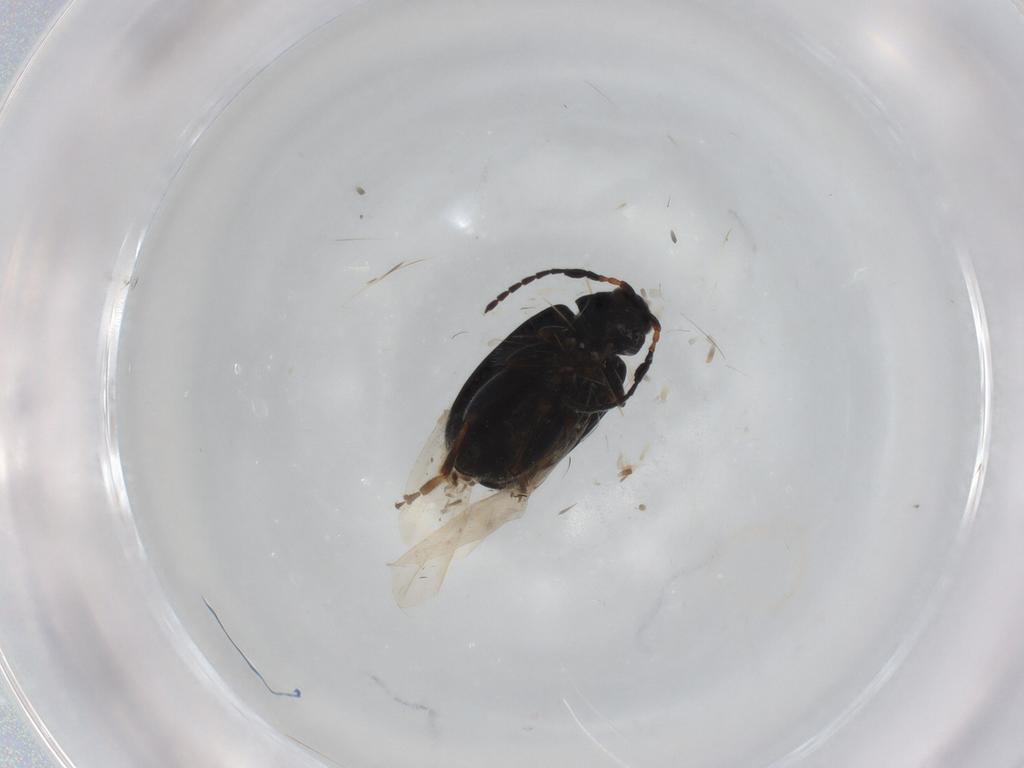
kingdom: Animalia
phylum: Arthropoda
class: Insecta
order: Coleoptera
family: Chrysomelidae
